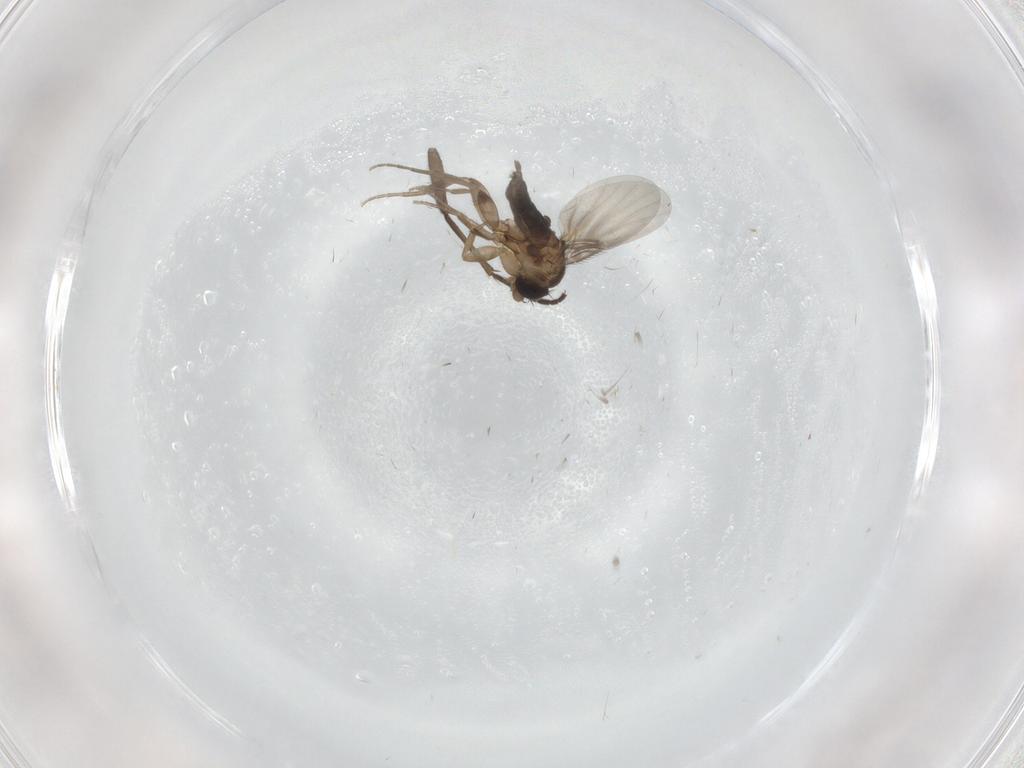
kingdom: Animalia
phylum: Arthropoda
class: Insecta
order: Diptera
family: Phoridae
